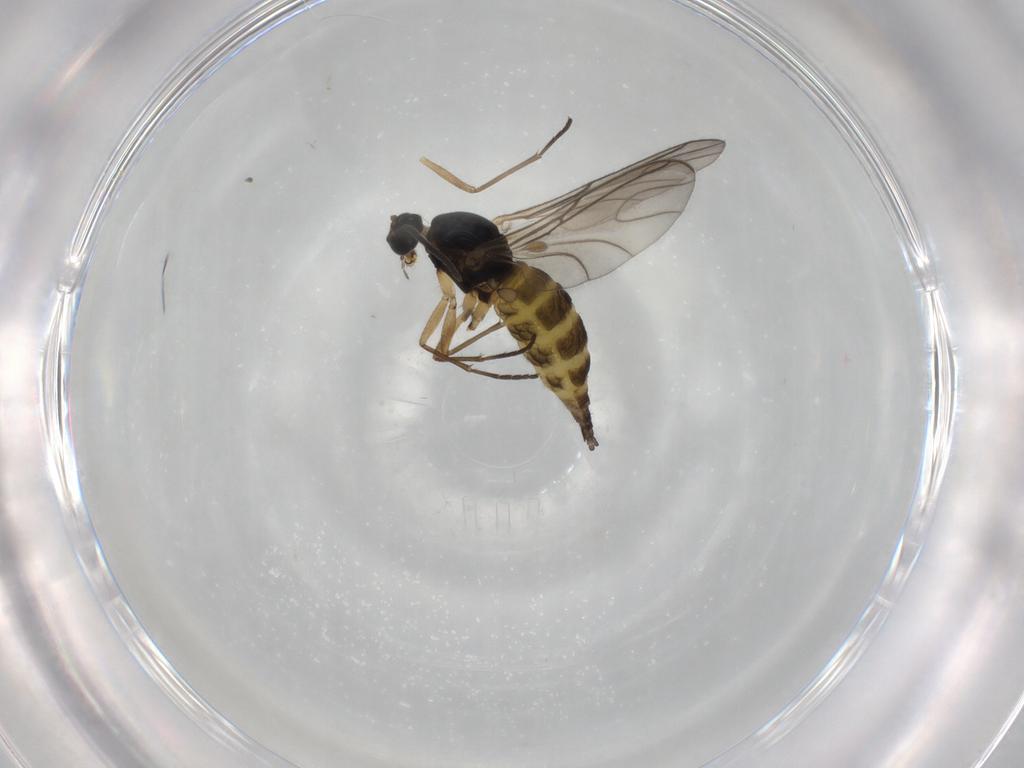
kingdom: Animalia
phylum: Arthropoda
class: Insecta
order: Diptera
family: Sciaridae
